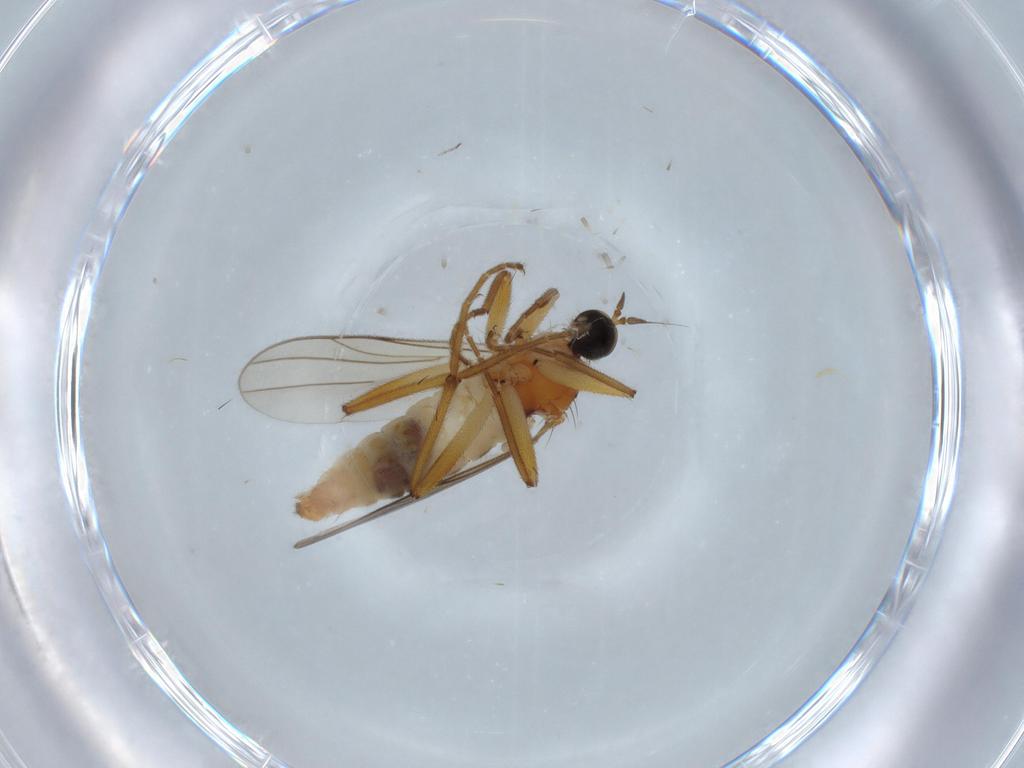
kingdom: Animalia
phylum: Arthropoda
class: Insecta
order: Diptera
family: Hybotidae
